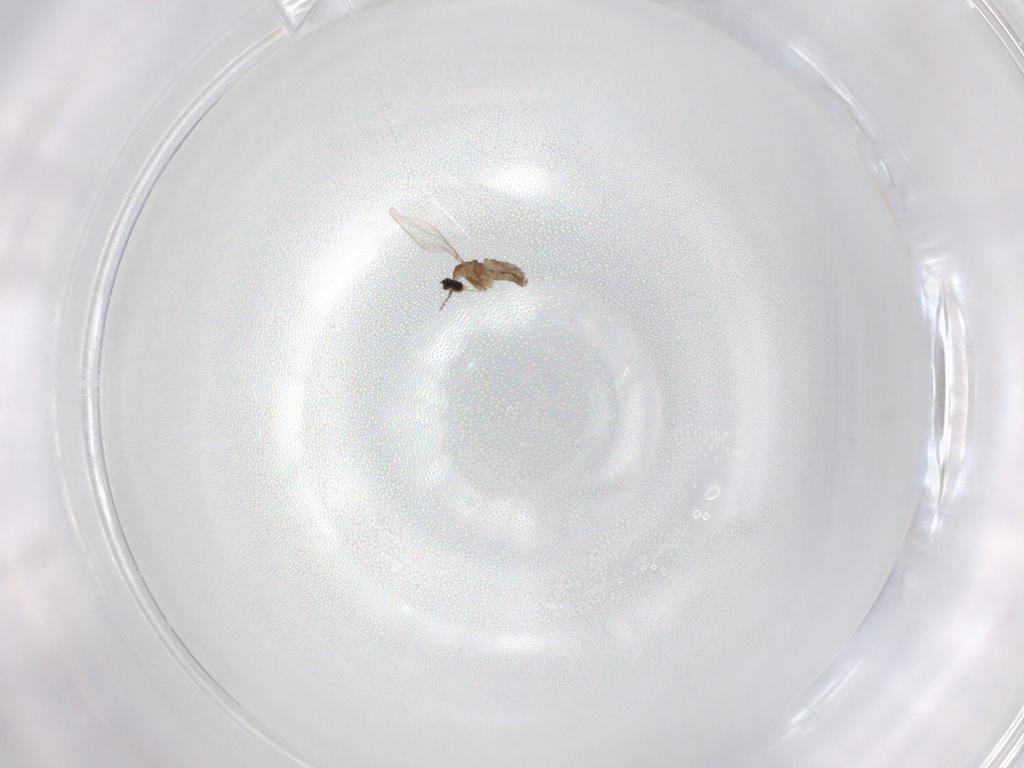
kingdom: Animalia
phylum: Arthropoda
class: Insecta
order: Diptera
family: Cecidomyiidae
